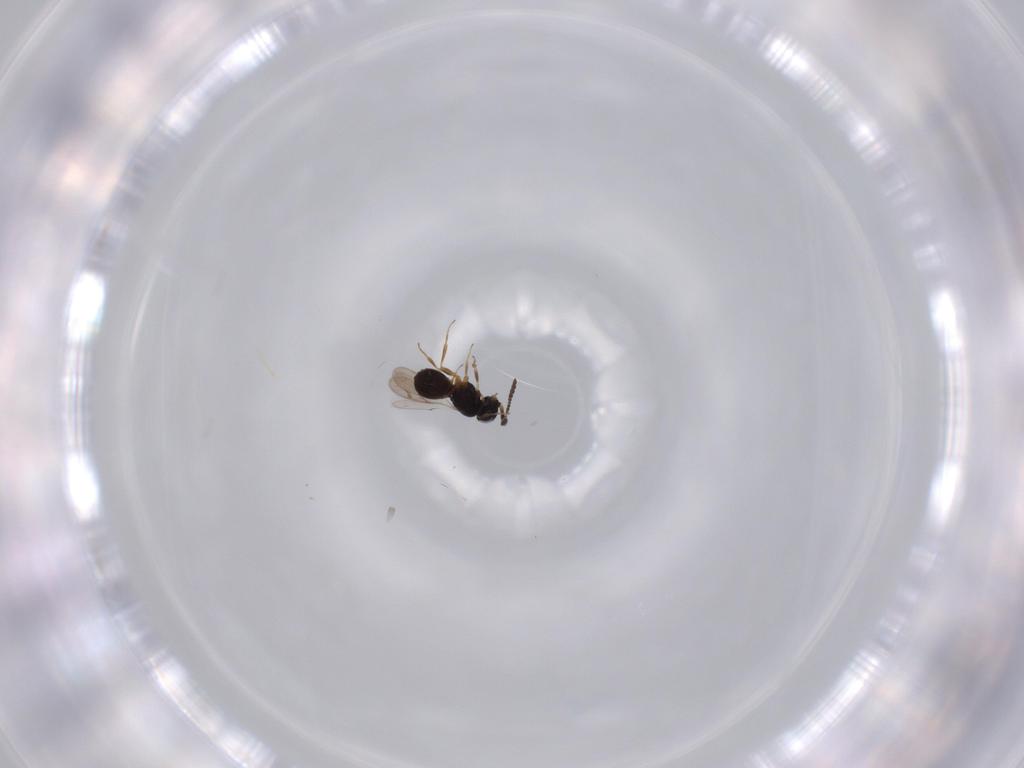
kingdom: Animalia
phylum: Arthropoda
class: Insecta
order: Hymenoptera
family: Scelionidae
